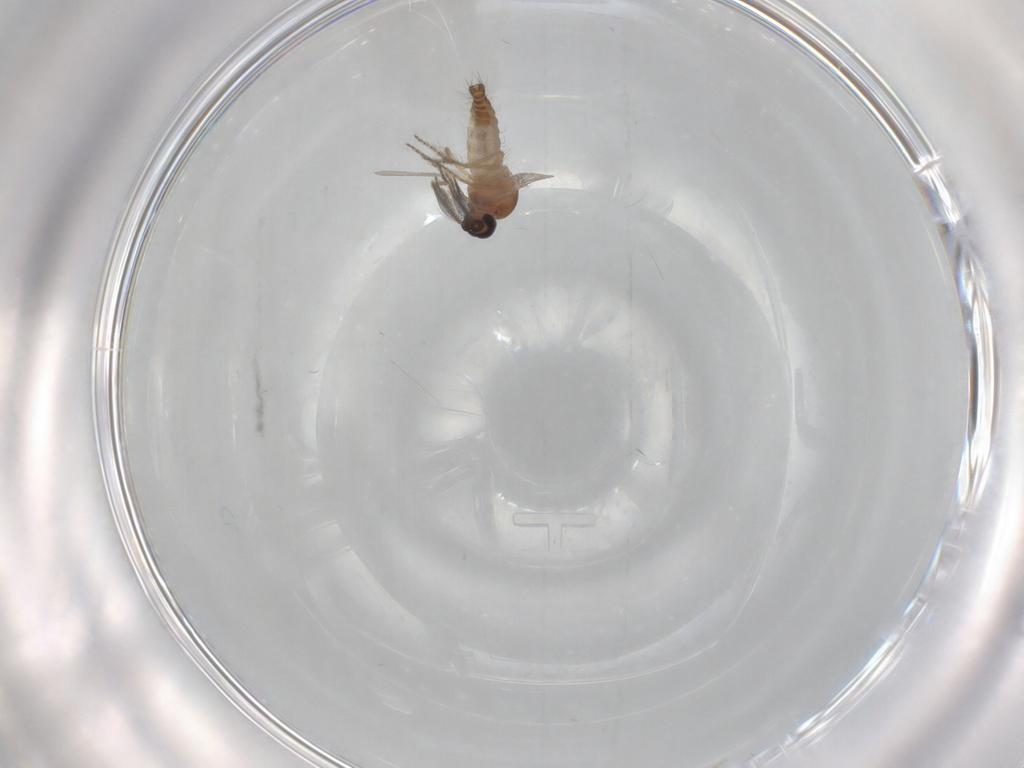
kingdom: Animalia
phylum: Arthropoda
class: Insecta
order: Diptera
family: Ceratopogonidae
